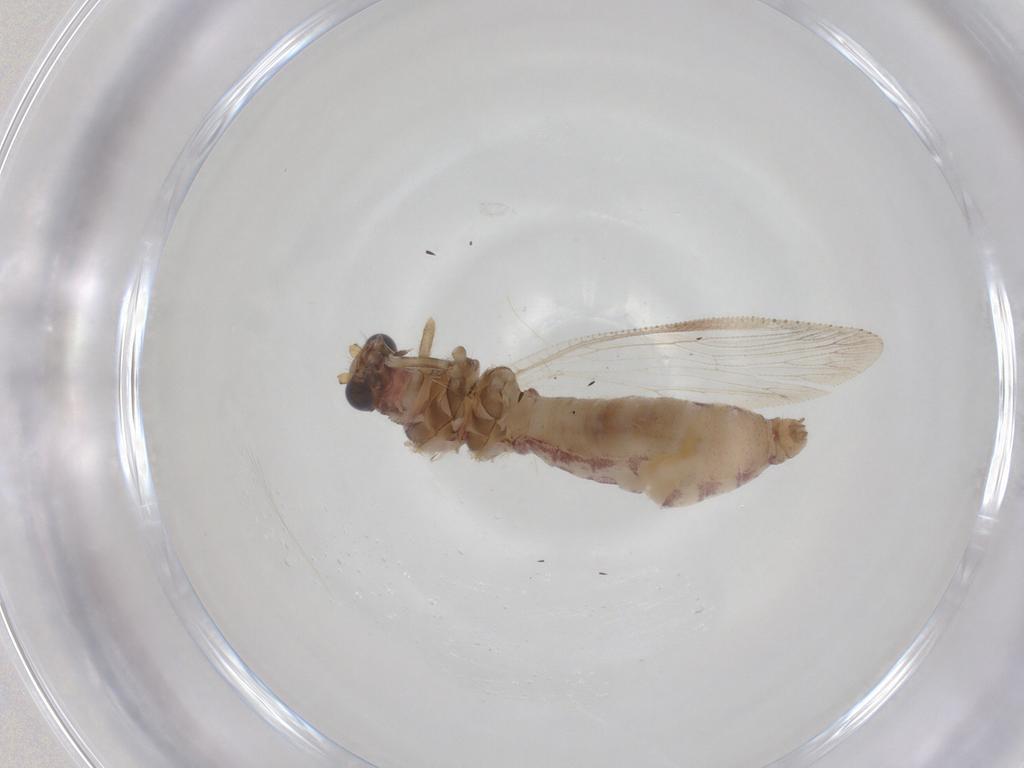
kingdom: Animalia
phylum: Arthropoda
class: Insecta
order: Neuroptera
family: Hemerobiidae
